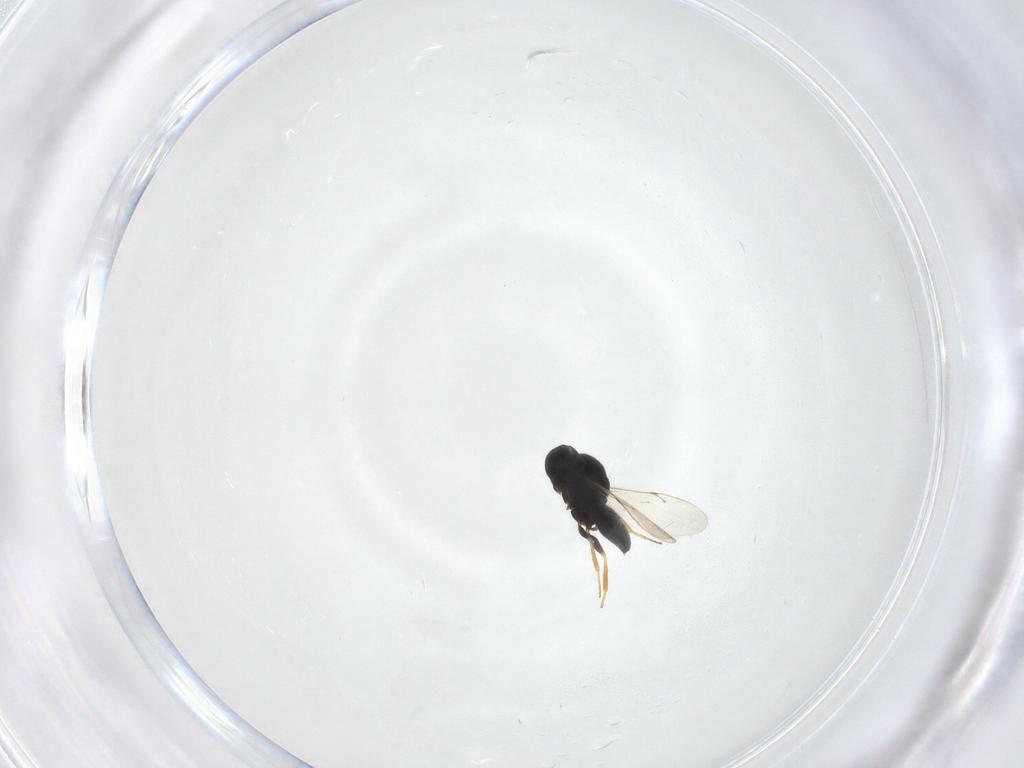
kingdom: Animalia
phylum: Arthropoda
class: Insecta
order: Hymenoptera
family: Scelionidae
